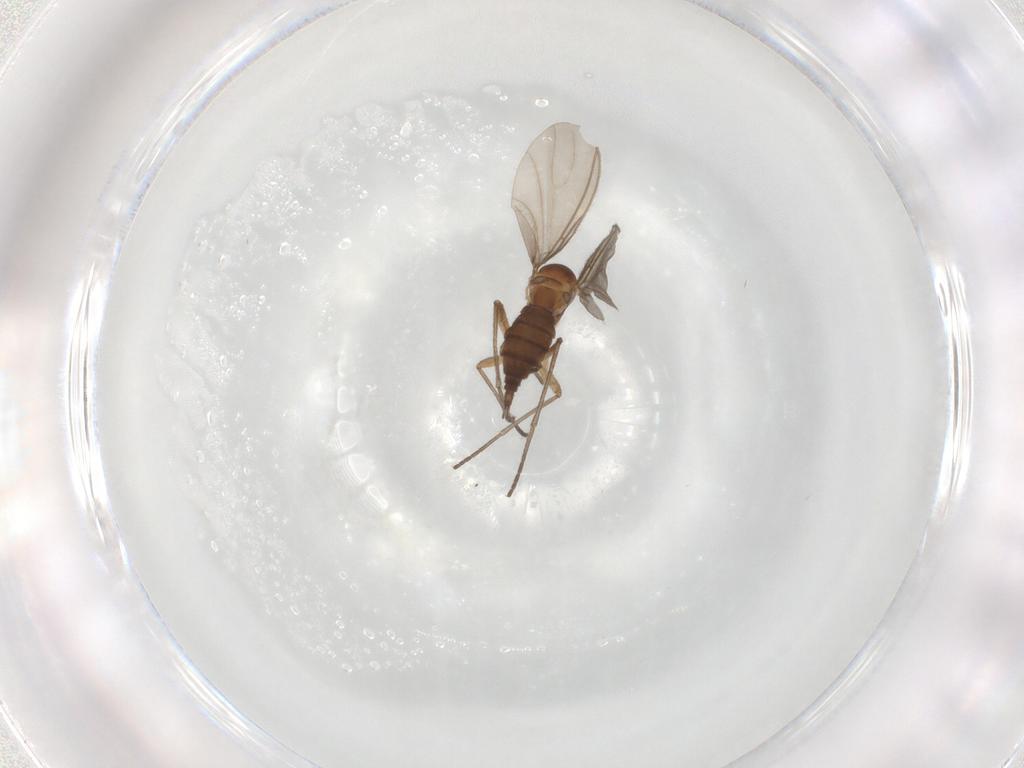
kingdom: Animalia
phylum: Arthropoda
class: Insecta
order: Diptera
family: Sciaridae
